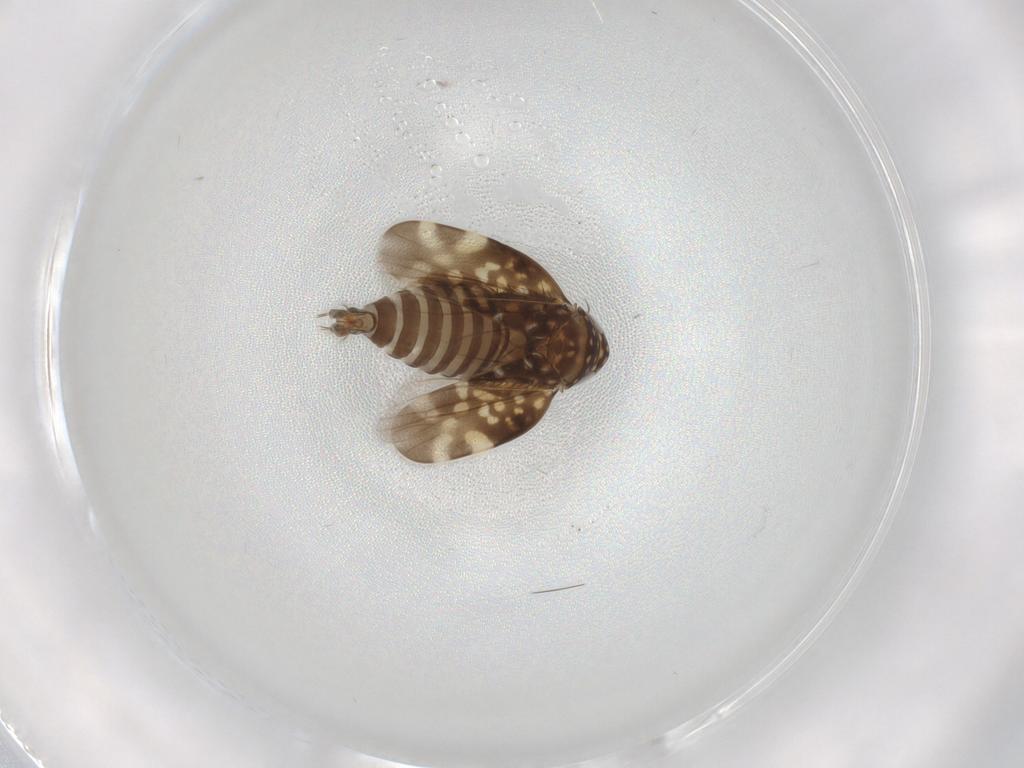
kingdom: Animalia
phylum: Arthropoda
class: Insecta
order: Hemiptera
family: Cicadellidae
